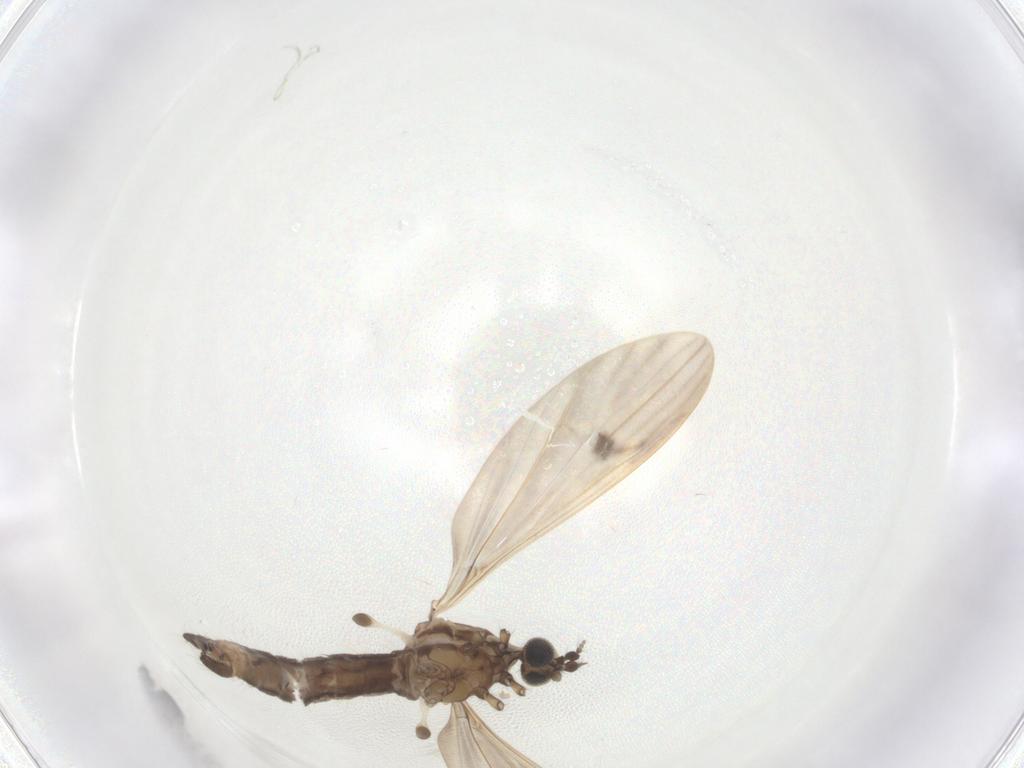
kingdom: Animalia
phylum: Arthropoda
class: Insecta
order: Diptera
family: Limoniidae
